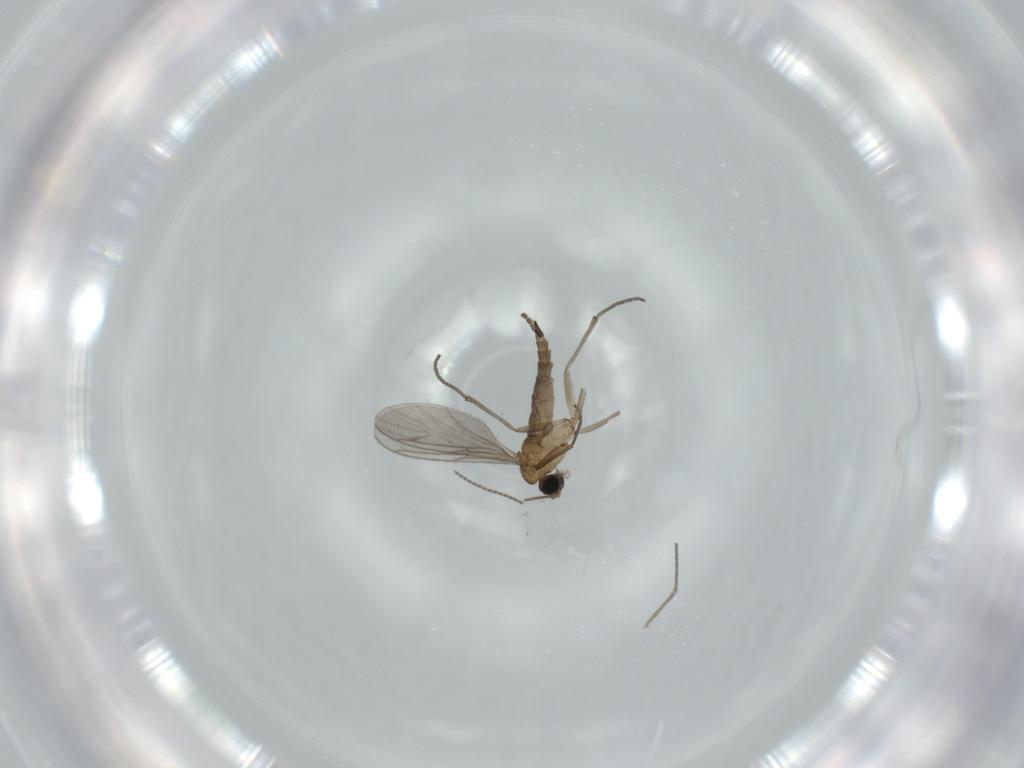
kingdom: Animalia
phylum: Arthropoda
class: Insecta
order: Diptera
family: Sciaridae
